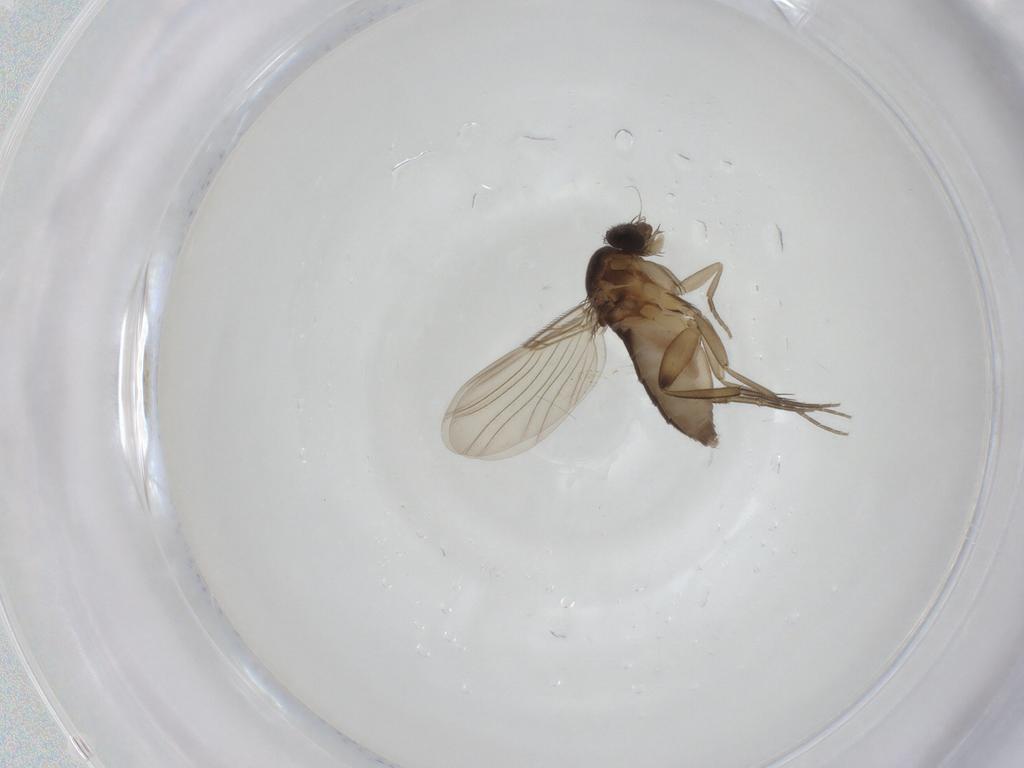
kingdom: Animalia
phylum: Arthropoda
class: Insecta
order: Diptera
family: Phoridae
